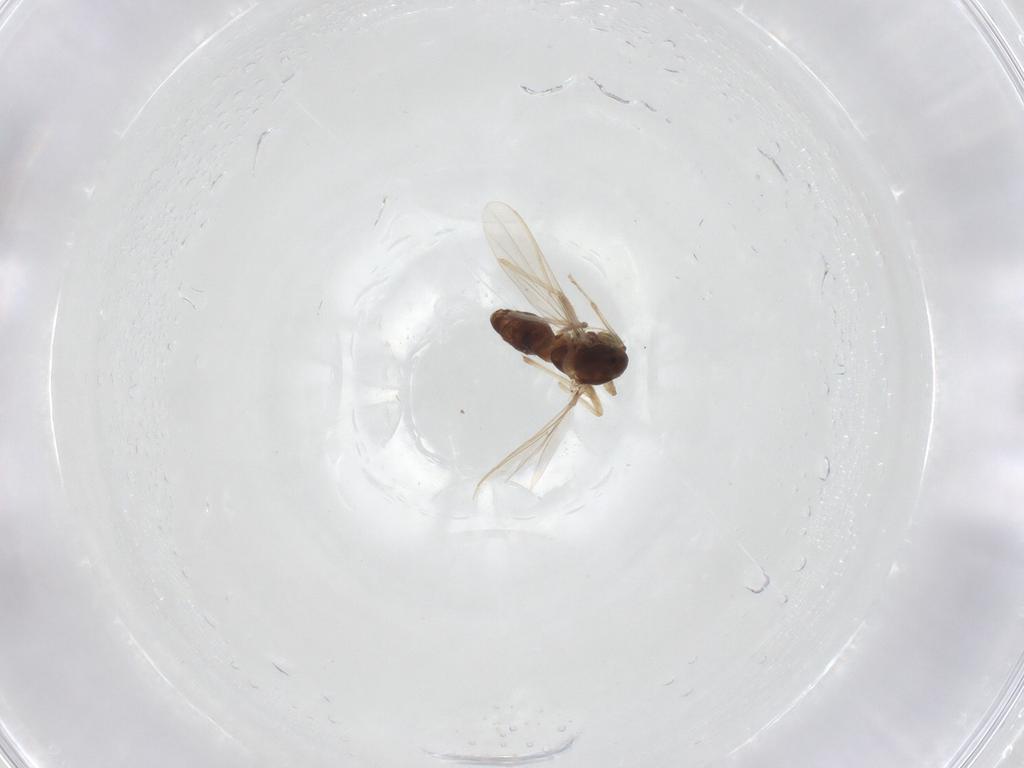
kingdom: Animalia
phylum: Arthropoda
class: Insecta
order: Diptera
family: Chironomidae
